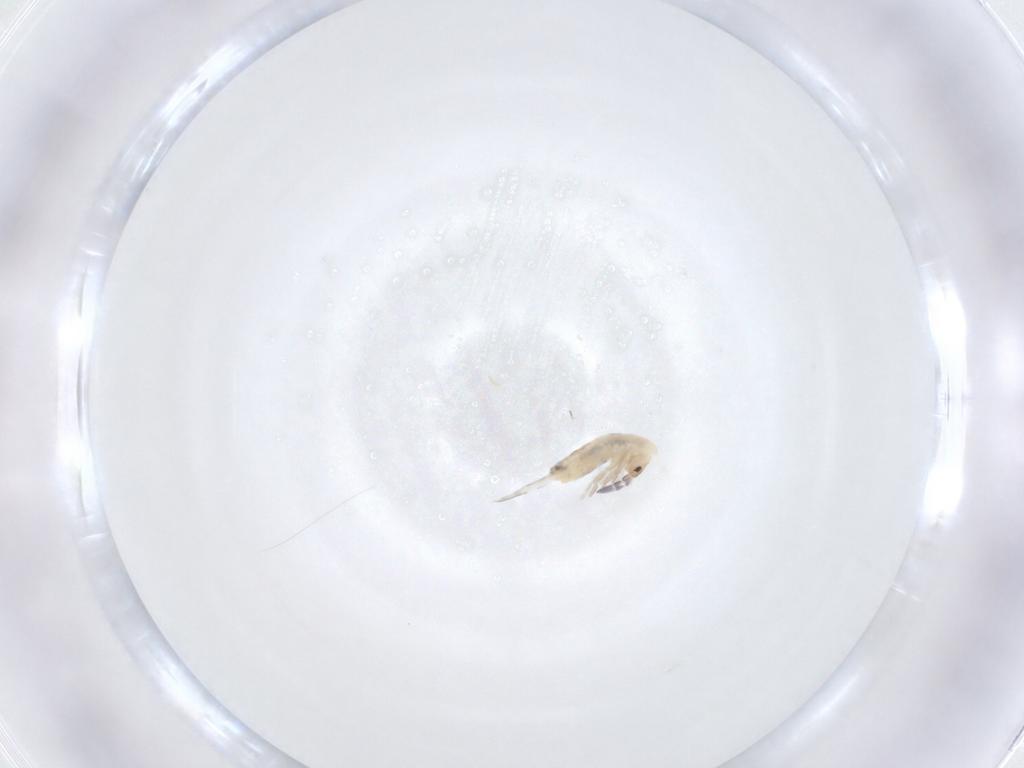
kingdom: Animalia
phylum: Arthropoda
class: Collembola
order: Entomobryomorpha
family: Entomobryidae
